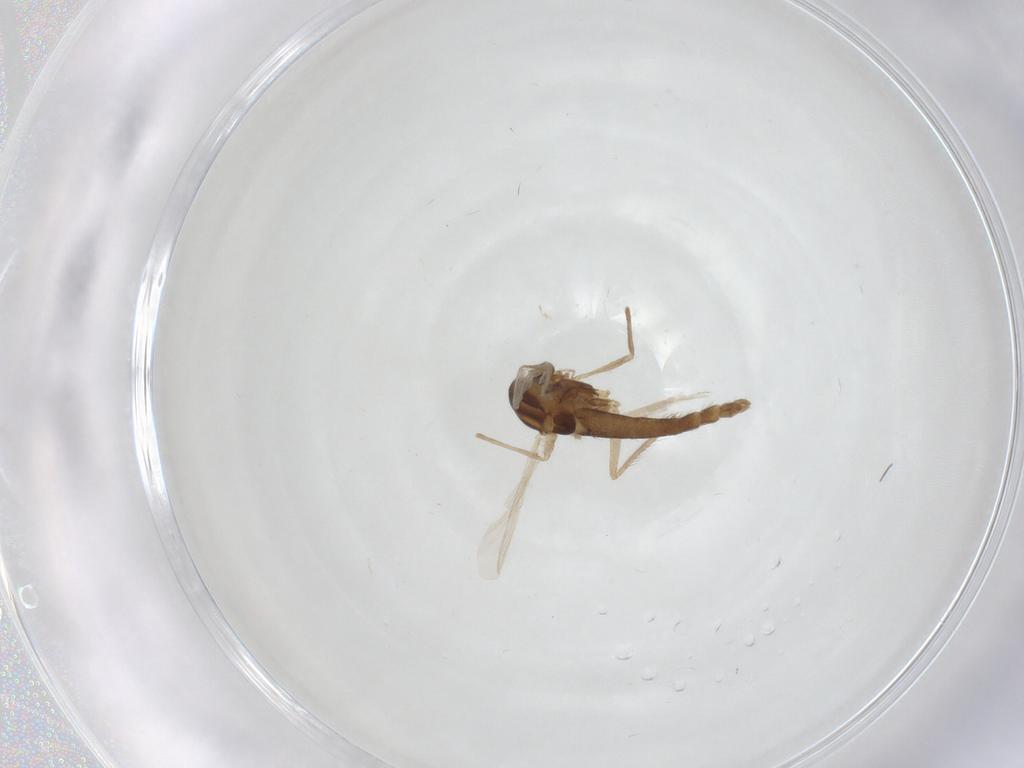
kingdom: Animalia
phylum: Arthropoda
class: Insecta
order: Diptera
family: Chironomidae
